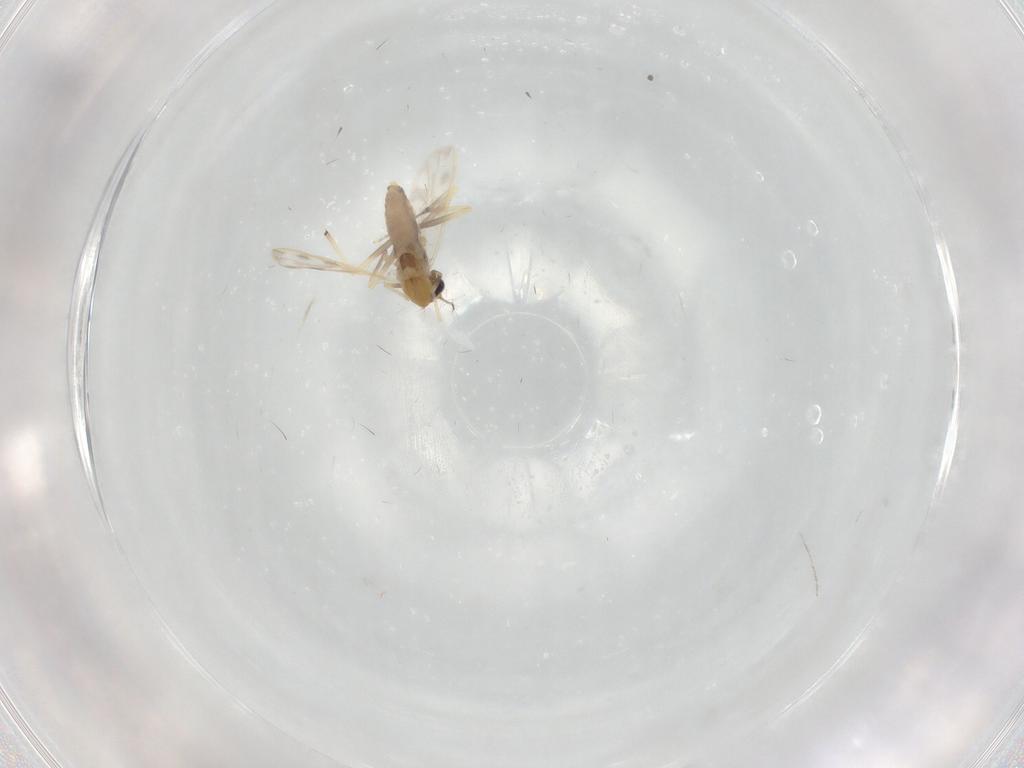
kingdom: Animalia
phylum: Arthropoda
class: Insecta
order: Diptera
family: Chironomidae
